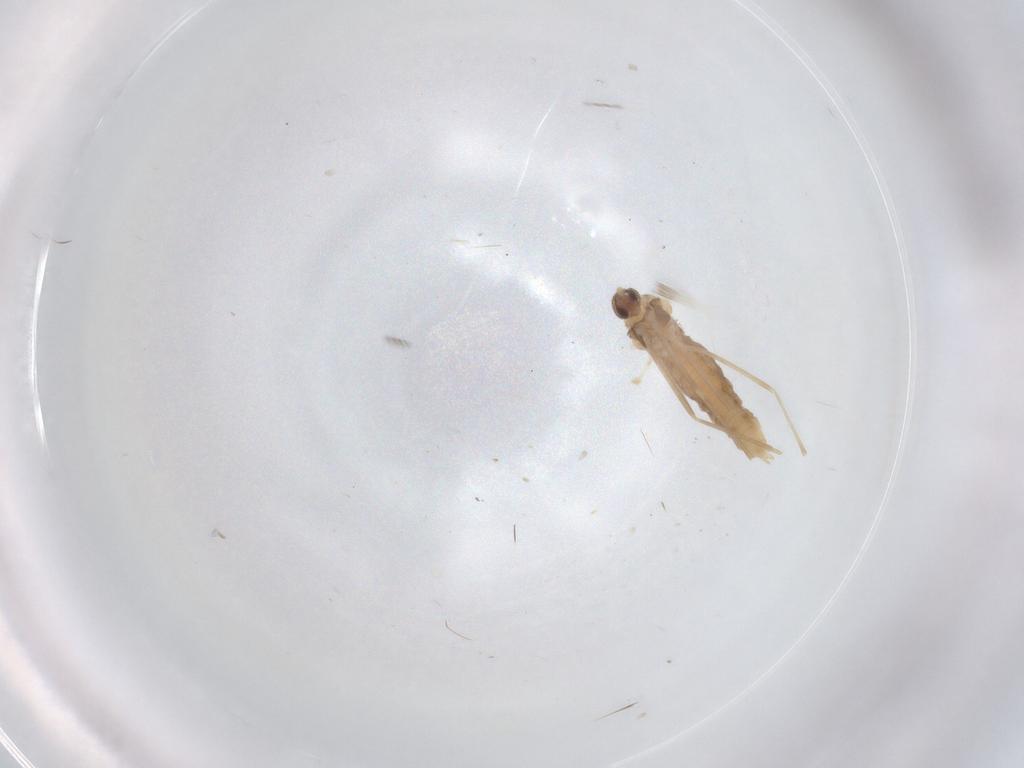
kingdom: Animalia
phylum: Arthropoda
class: Insecta
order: Diptera
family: Cecidomyiidae
